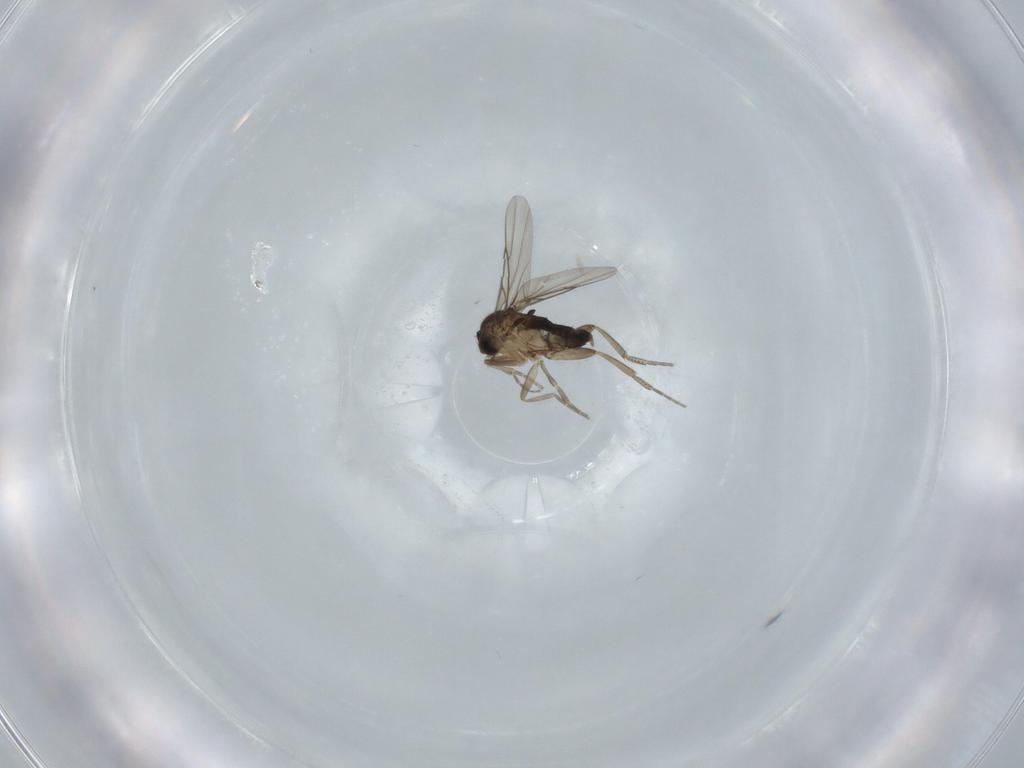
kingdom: Animalia
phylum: Arthropoda
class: Insecta
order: Diptera
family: Phoridae
